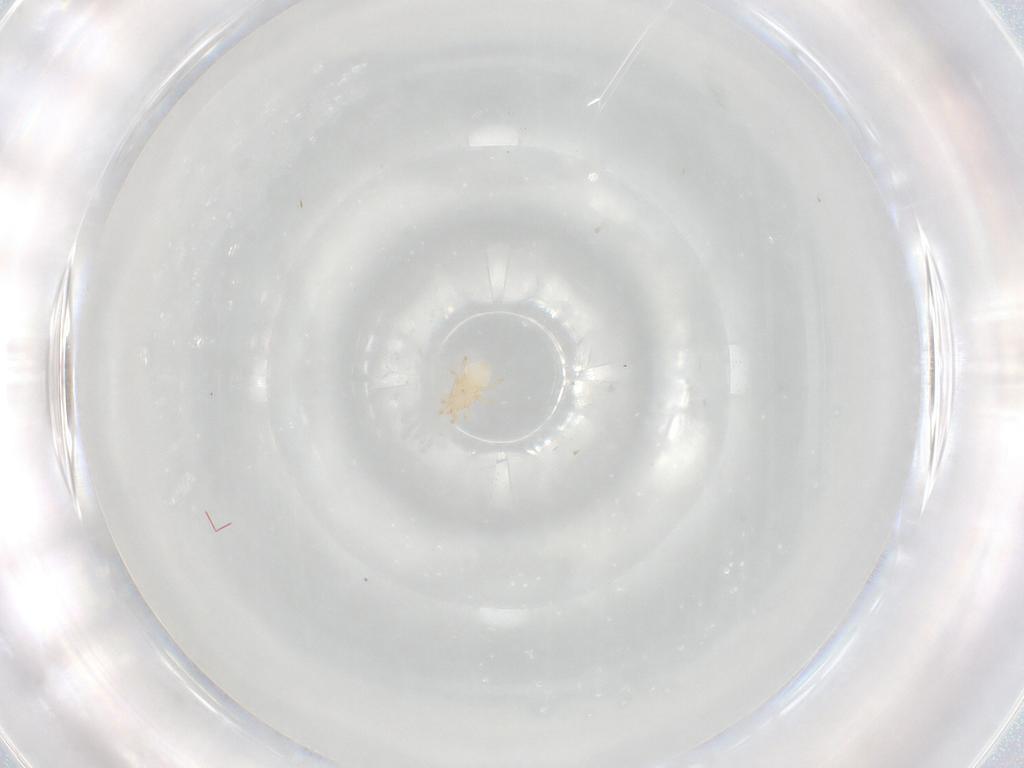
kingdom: Animalia
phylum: Arthropoda
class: Arachnida
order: Mesostigmata
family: Melicharidae
